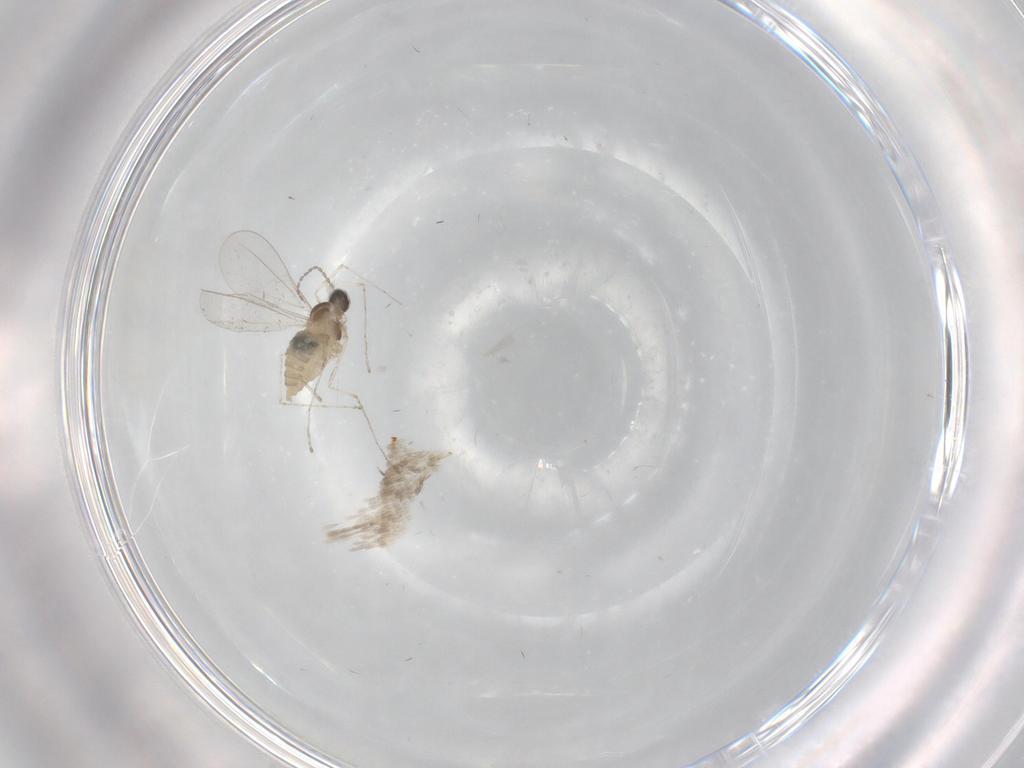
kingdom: Animalia
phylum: Arthropoda
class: Insecta
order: Diptera
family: Cecidomyiidae
